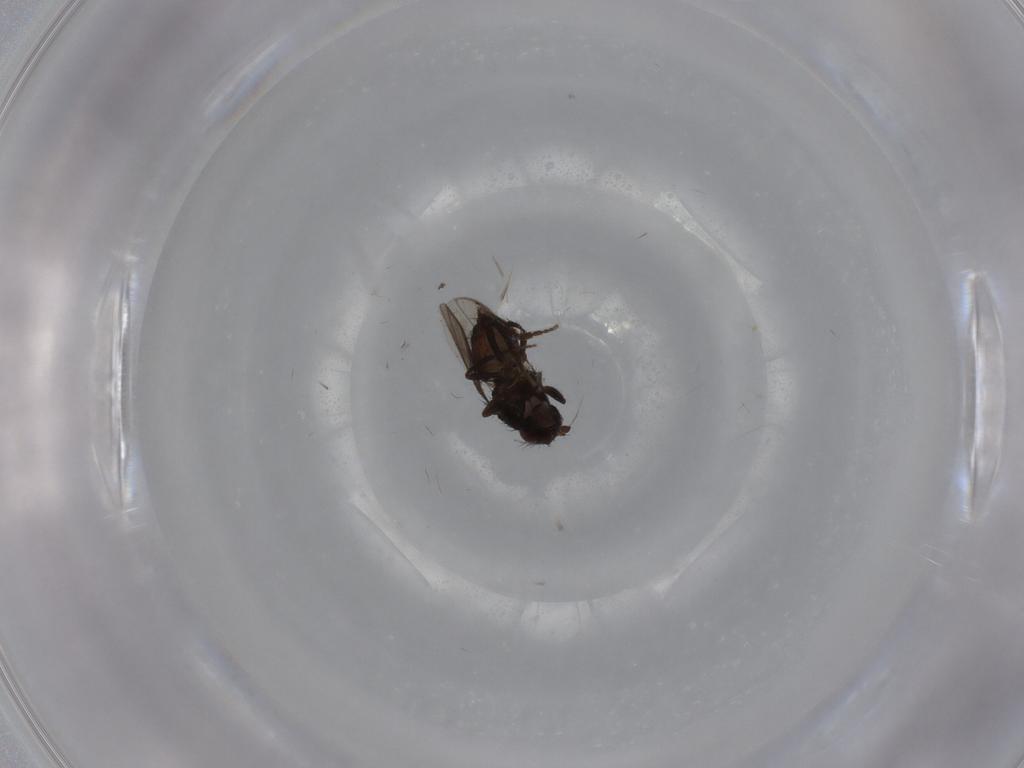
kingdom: Animalia
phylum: Arthropoda
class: Insecta
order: Diptera
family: Sphaeroceridae
